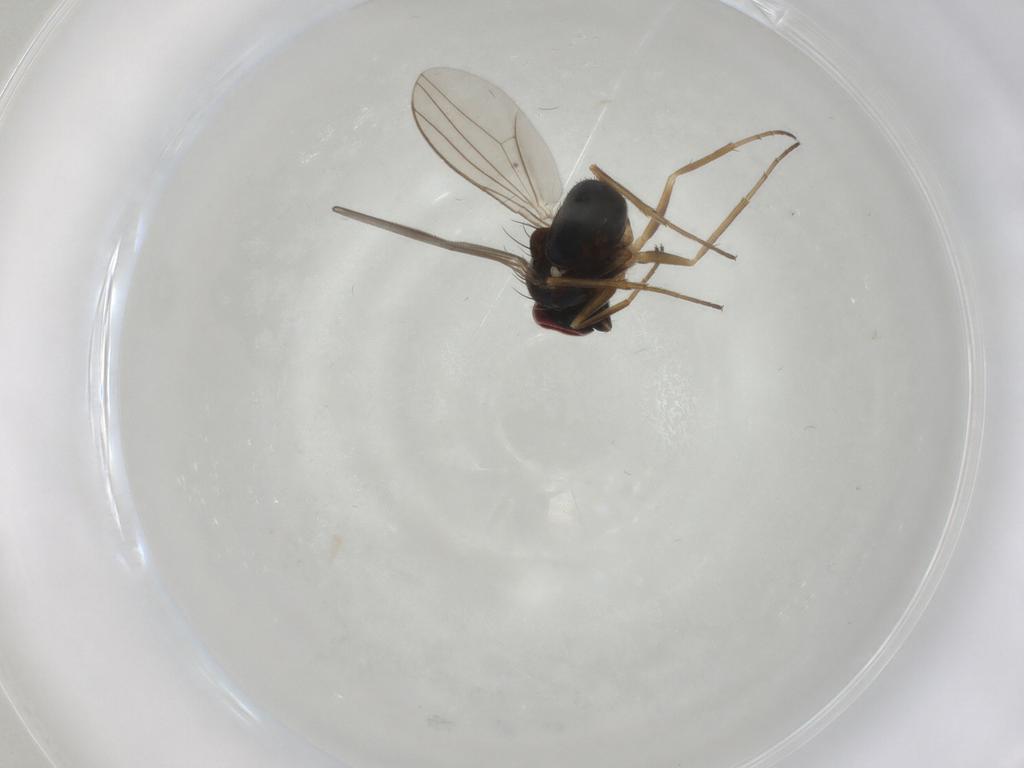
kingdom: Animalia
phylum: Arthropoda
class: Insecta
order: Diptera
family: Dolichopodidae
